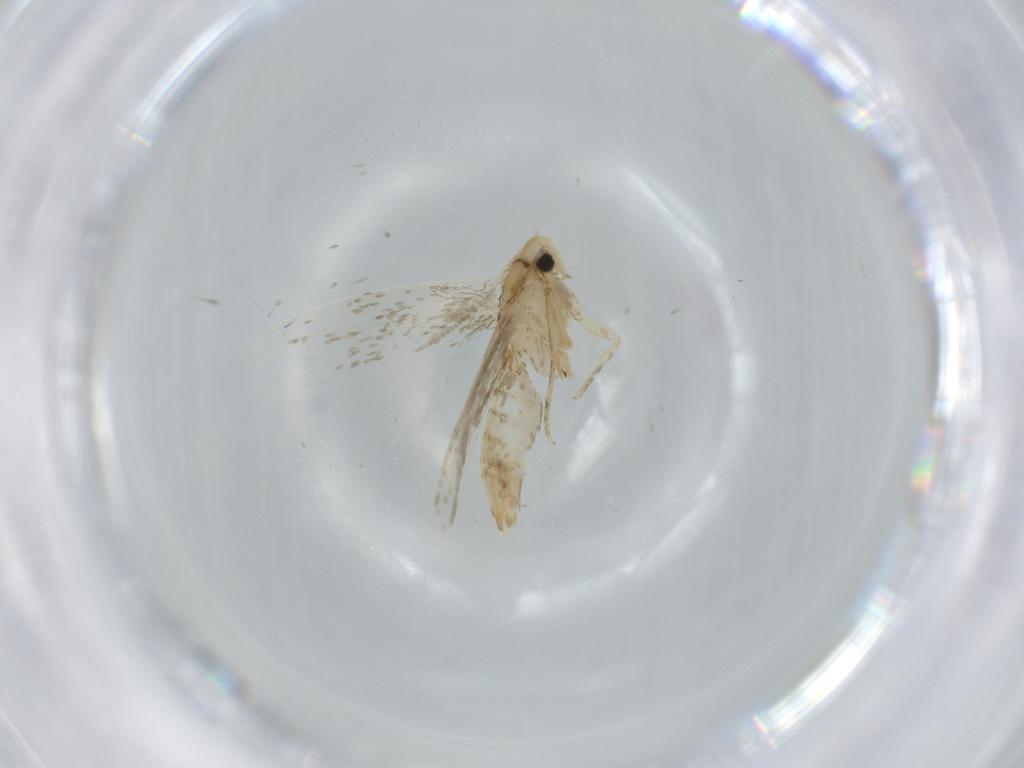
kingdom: Animalia
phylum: Arthropoda
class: Insecta
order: Lepidoptera
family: Tineidae
